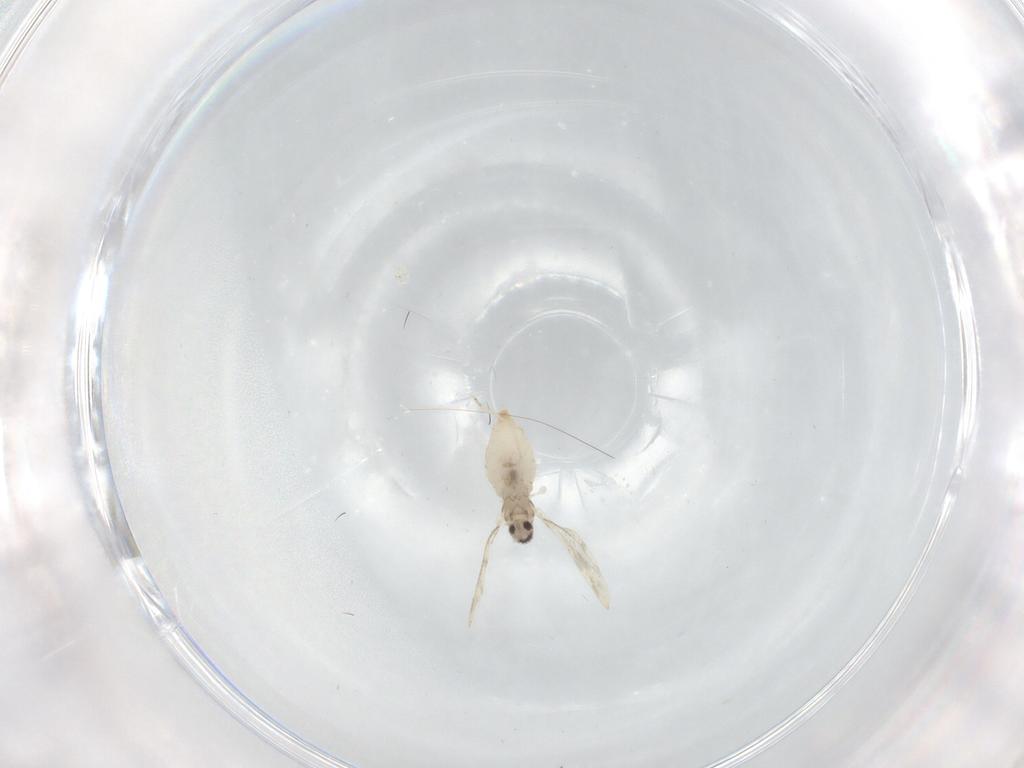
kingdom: Animalia
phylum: Arthropoda
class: Insecta
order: Diptera
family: Cecidomyiidae
